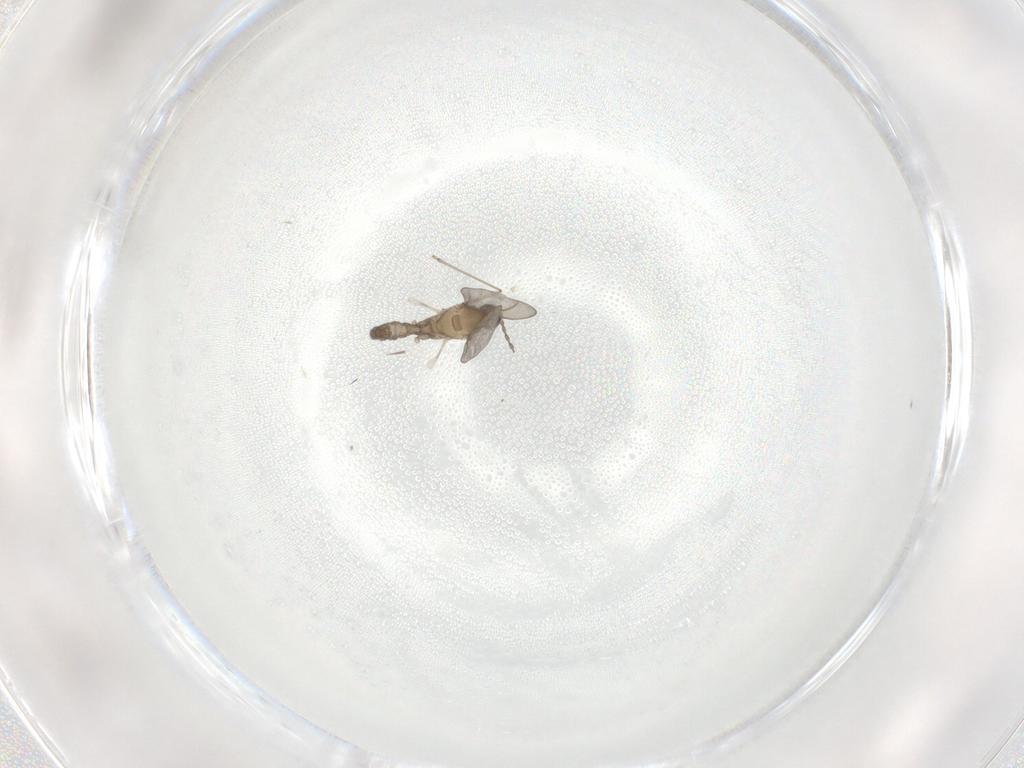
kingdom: Animalia
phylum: Arthropoda
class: Insecta
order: Diptera
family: Cecidomyiidae
